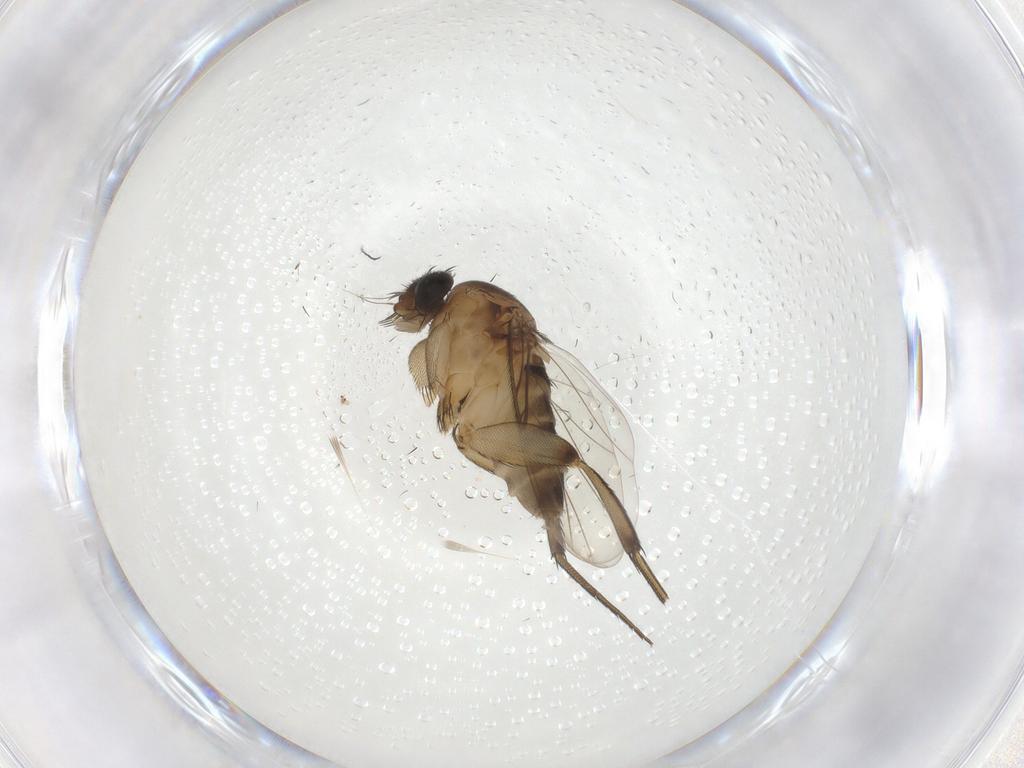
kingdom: Animalia
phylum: Arthropoda
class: Insecta
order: Diptera
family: Phoridae
